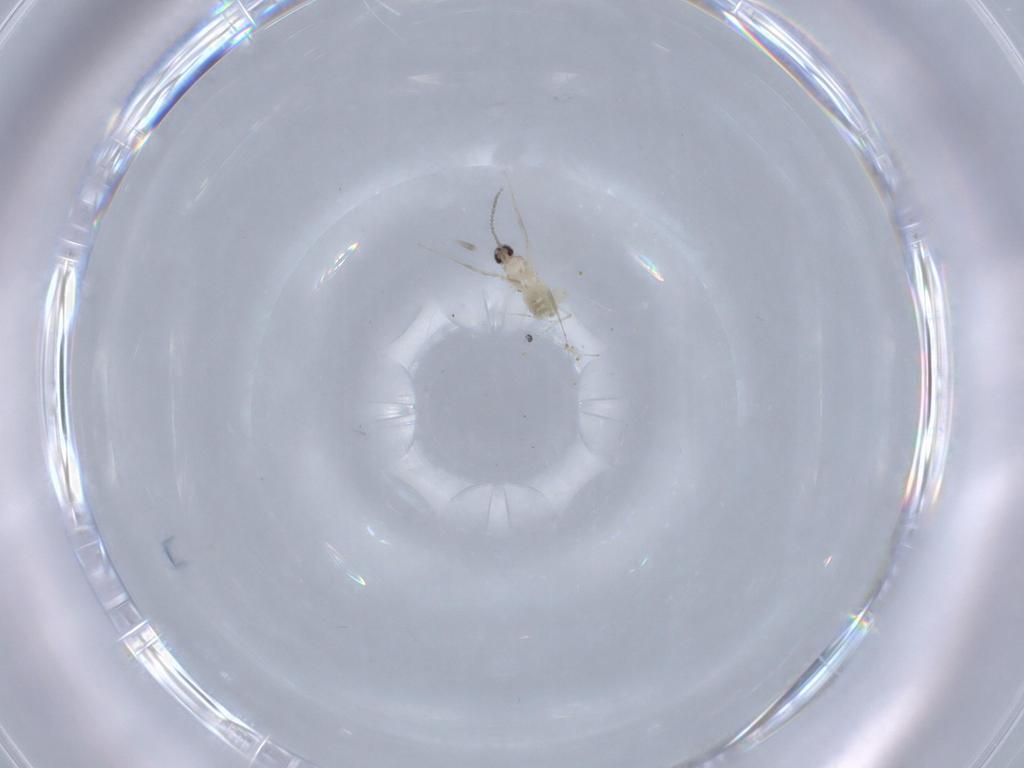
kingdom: Animalia
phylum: Arthropoda
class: Insecta
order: Diptera
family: Cecidomyiidae
